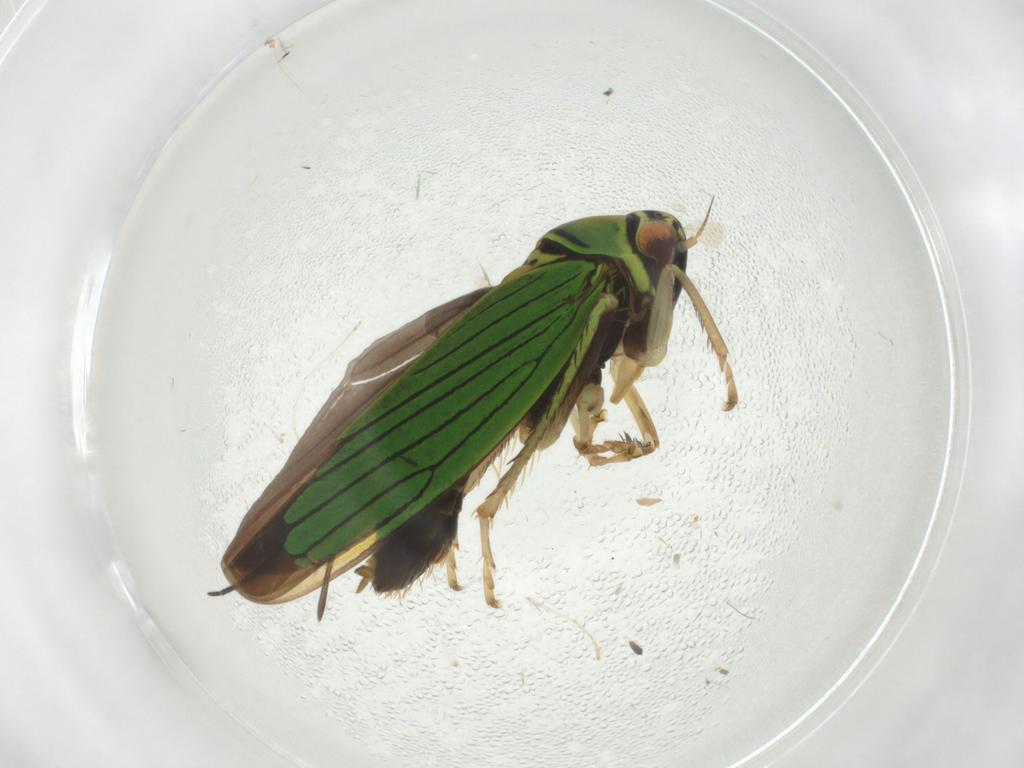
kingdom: Animalia
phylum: Arthropoda
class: Insecta
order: Hemiptera
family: Cicadellidae
